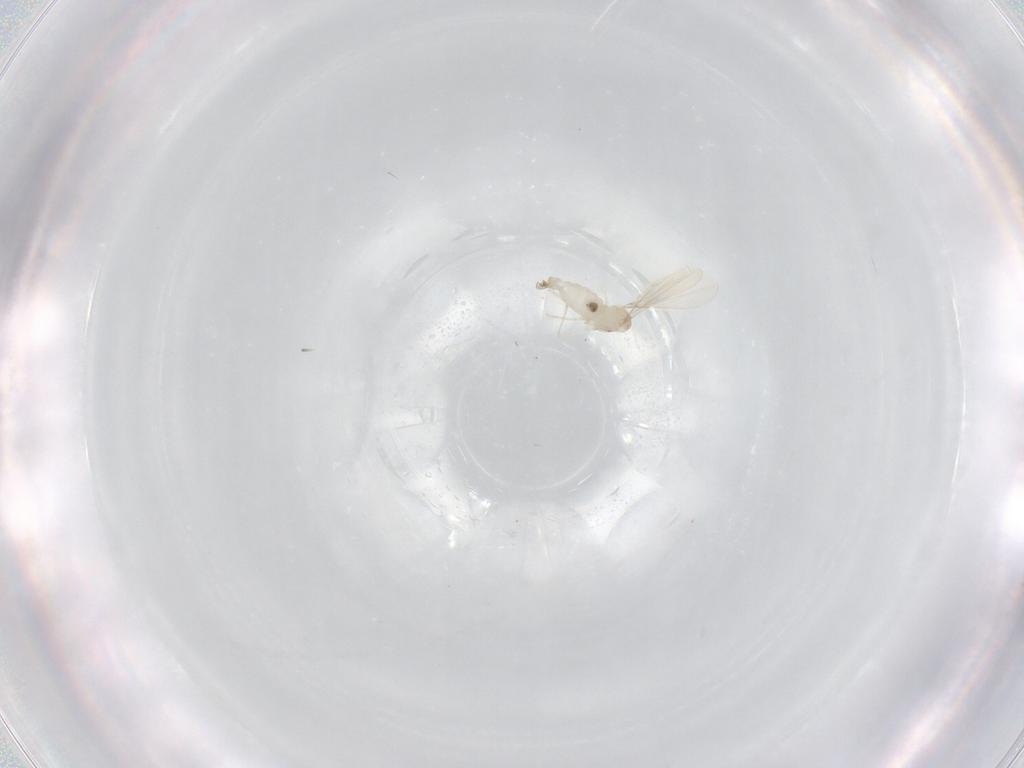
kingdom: Animalia
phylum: Arthropoda
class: Insecta
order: Diptera
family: Cecidomyiidae
